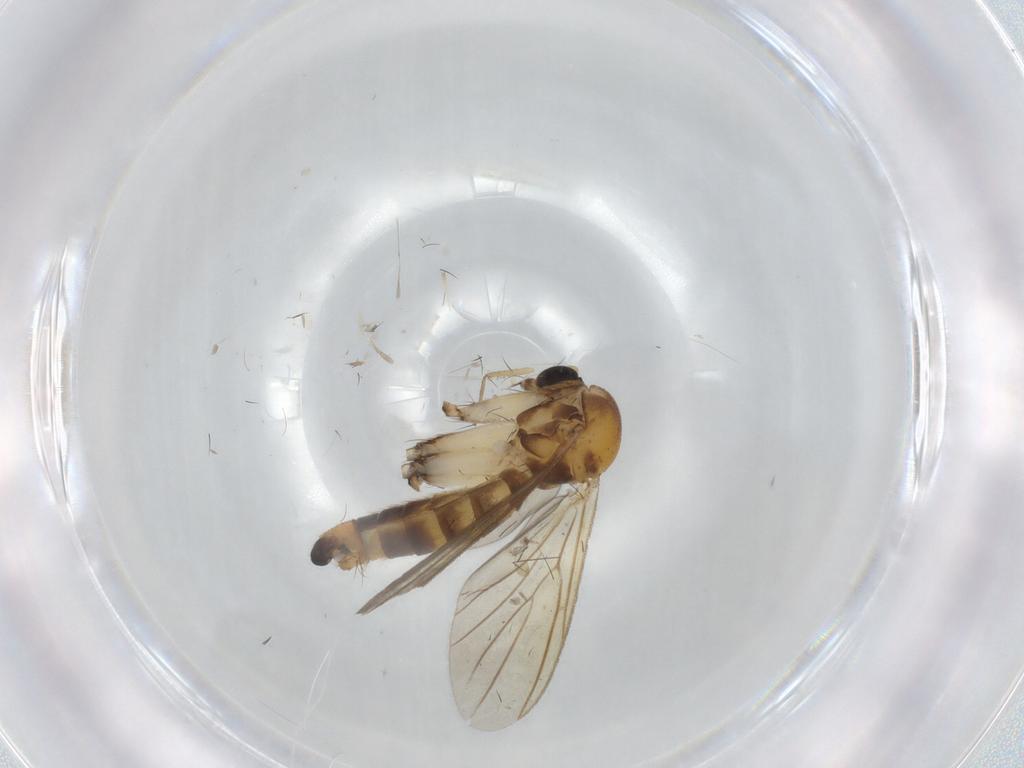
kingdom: Animalia
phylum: Arthropoda
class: Insecta
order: Diptera
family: Mycetophilidae
